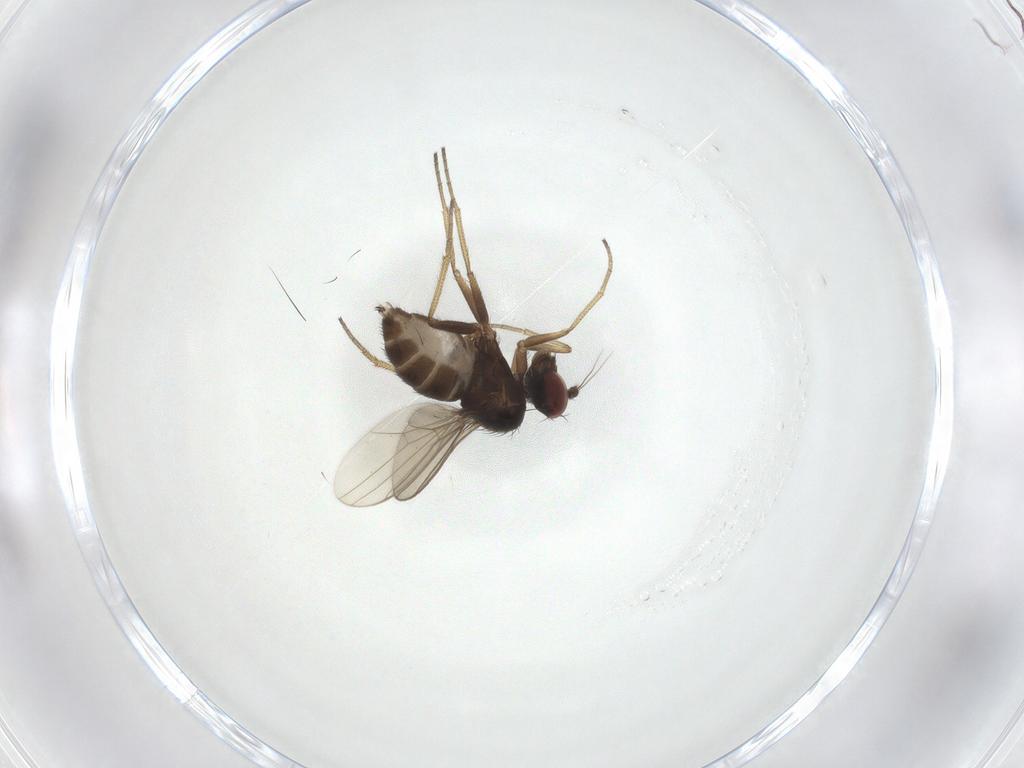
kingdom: Animalia
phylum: Arthropoda
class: Insecta
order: Diptera
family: Dolichopodidae
